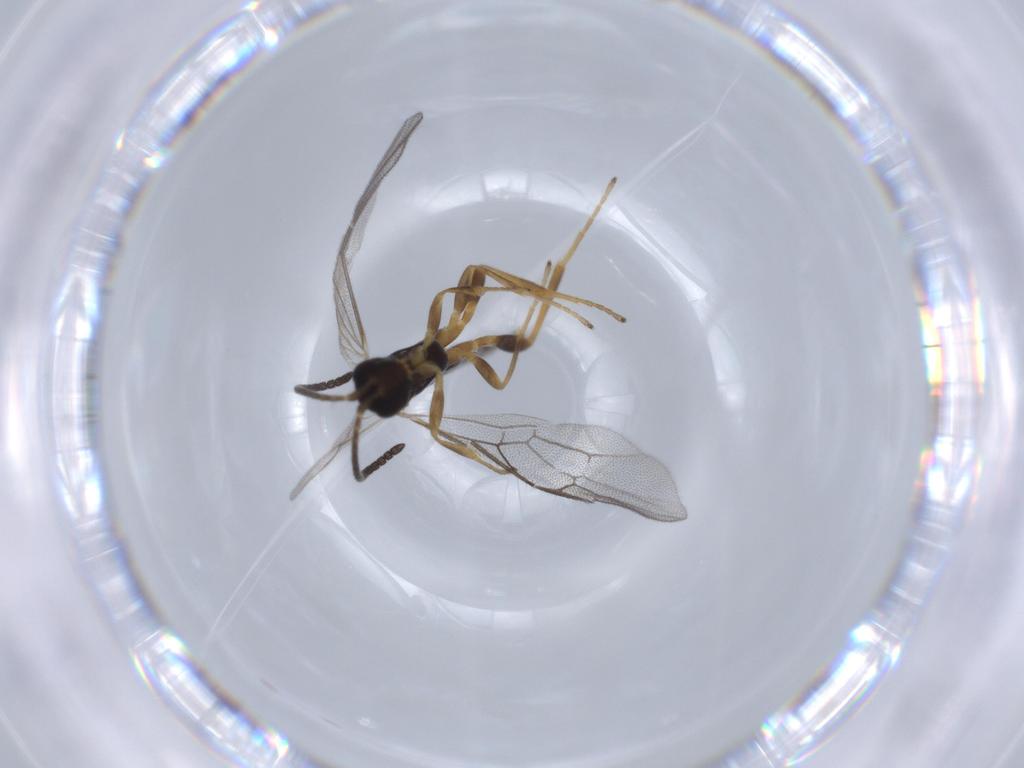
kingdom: Animalia
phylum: Arthropoda
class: Insecta
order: Hymenoptera
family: Ichneumonidae
